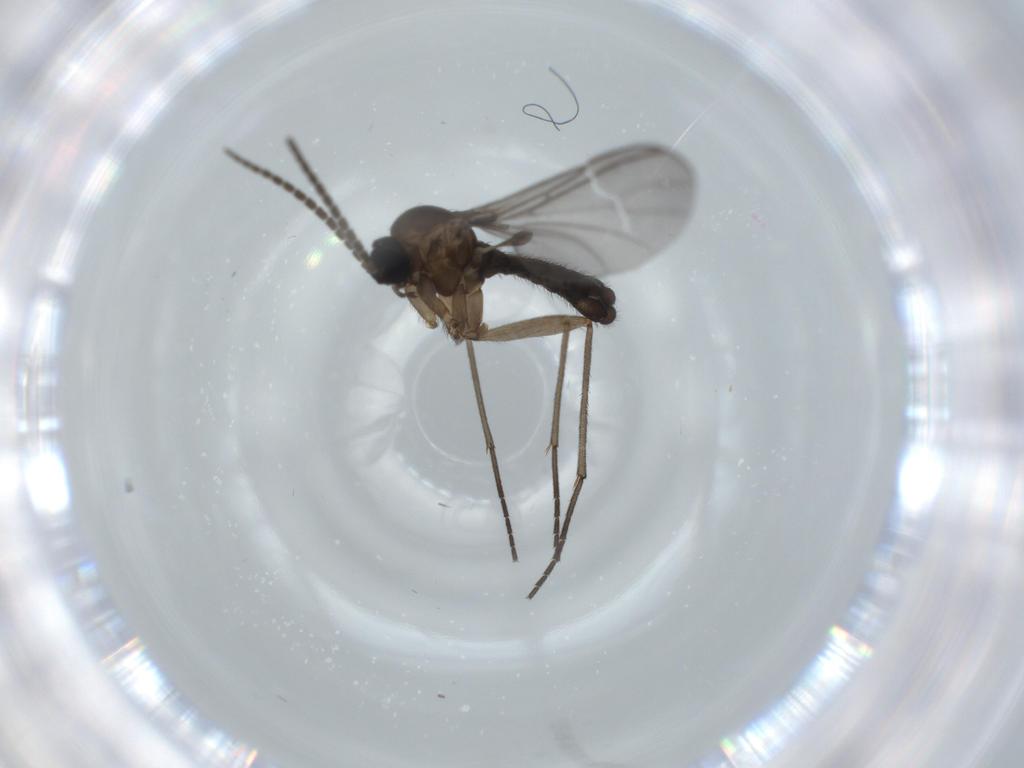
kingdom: Animalia
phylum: Arthropoda
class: Insecta
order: Diptera
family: Sciaridae
